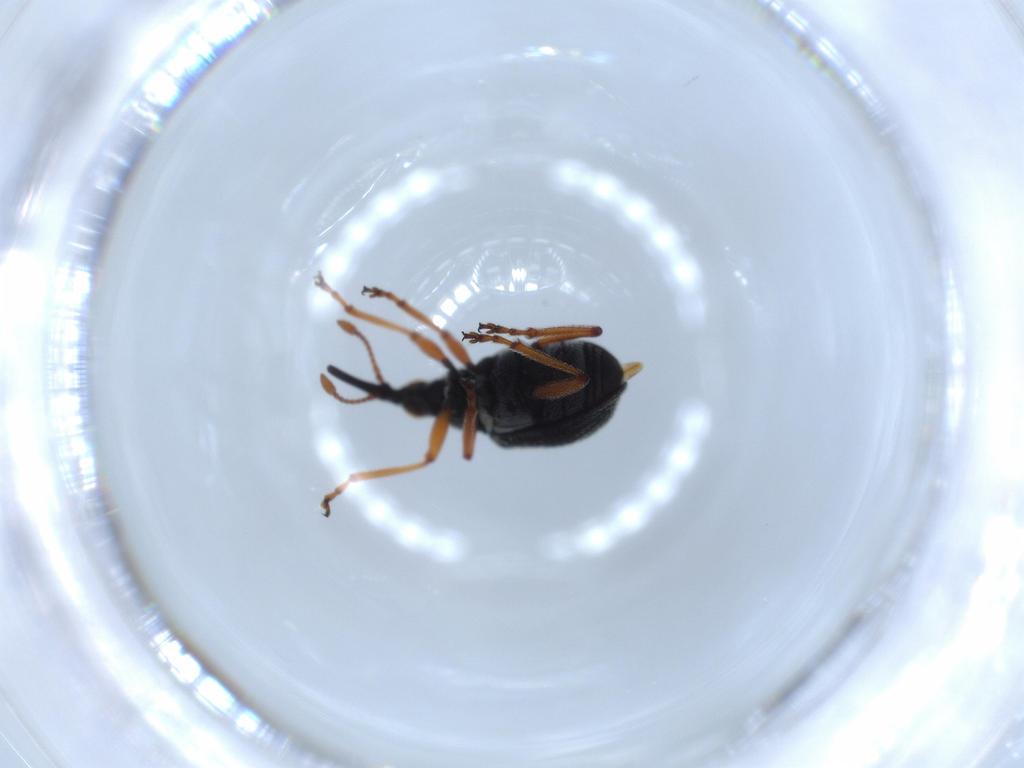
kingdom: Animalia
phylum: Arthropoda
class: Insecta
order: Coleoptera
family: Brentidae
